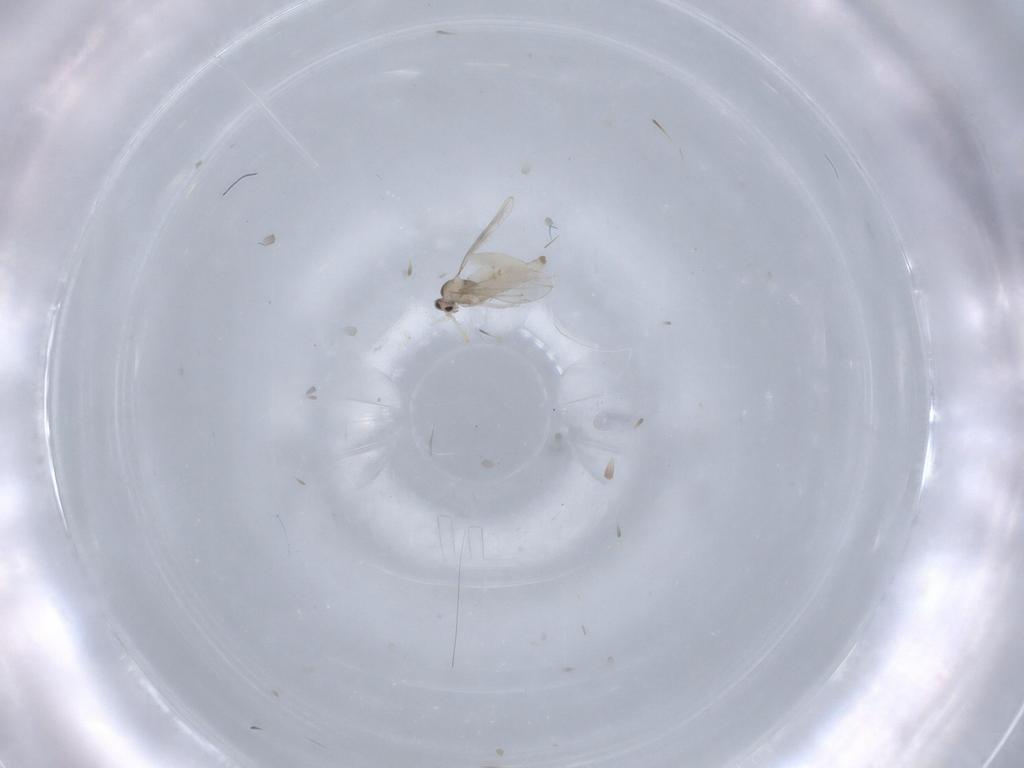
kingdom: Animalia
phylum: Arthropoda
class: Insecta
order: Diptera
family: Cecidomyiidae
